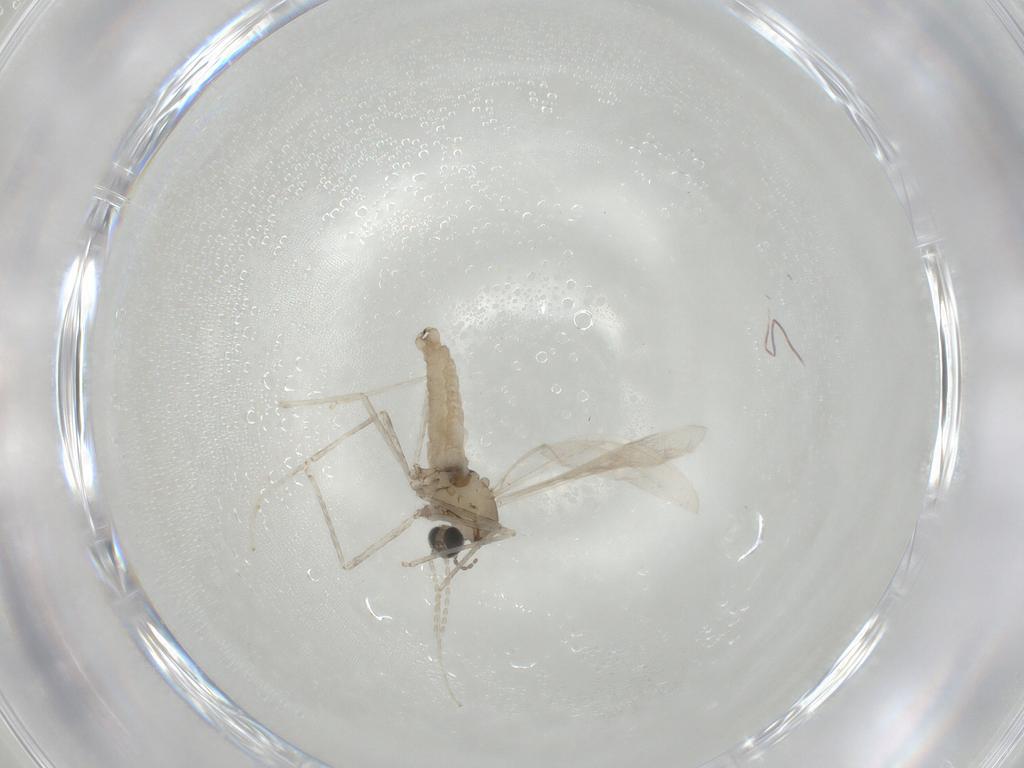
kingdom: Animalia
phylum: Arthropoda
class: Insecta
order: Diptera
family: Cecidomyiidae
